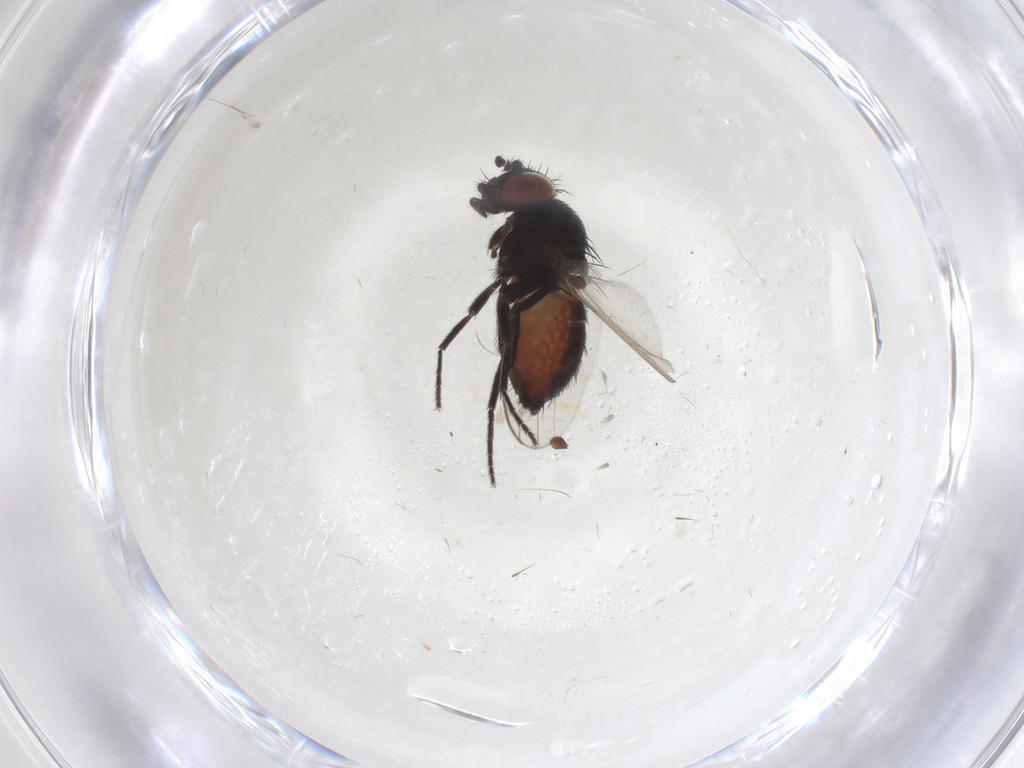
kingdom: Animalia
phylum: Arthropoda
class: Insecta
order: Diptera
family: Milichiidae
